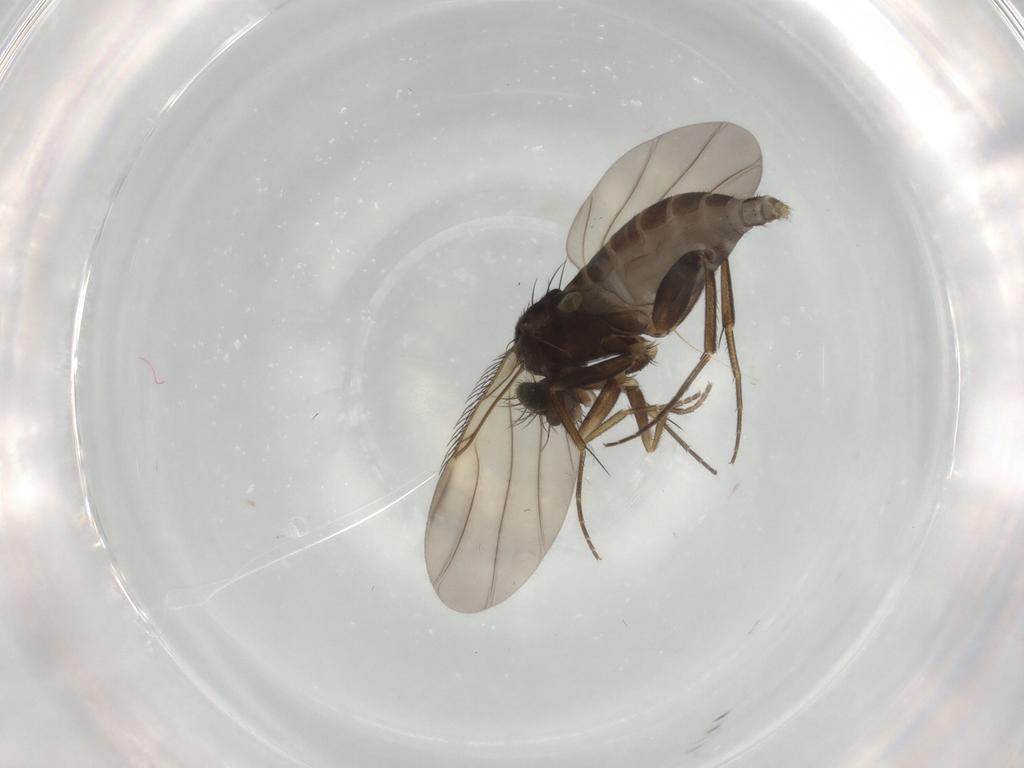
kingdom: Animalia
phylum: Arthropoda
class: Insecta
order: Diptera
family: Phoridae
